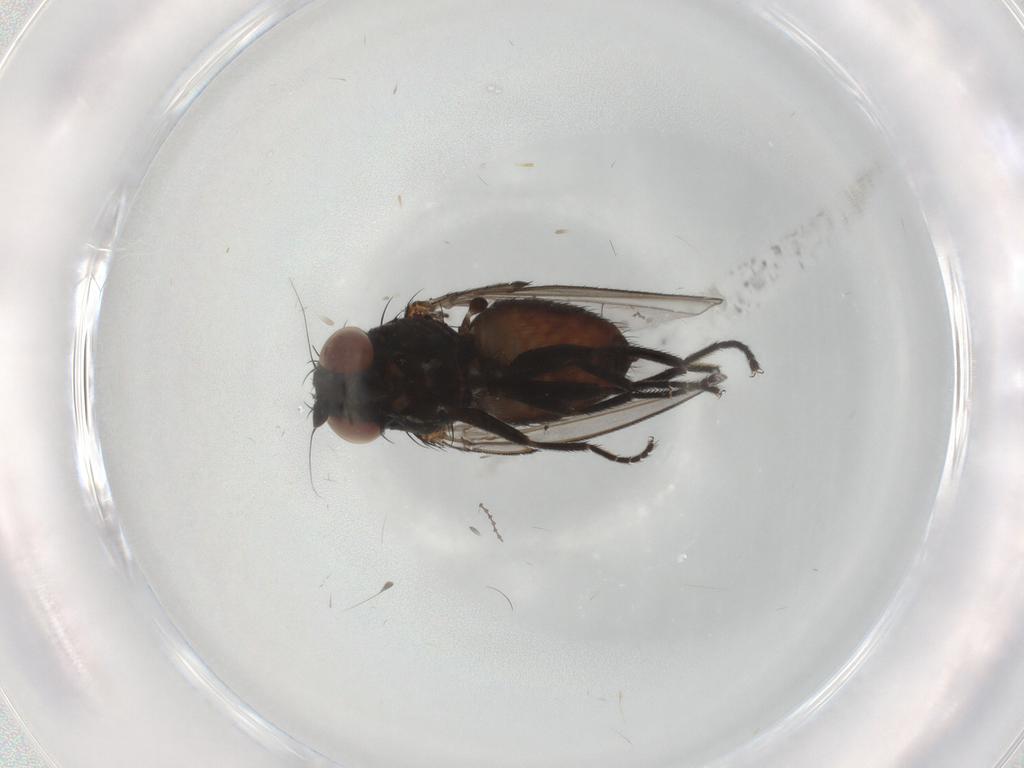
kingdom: Animalia
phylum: Arthropoda
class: Insecta
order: Diptera
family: Milichiidae
